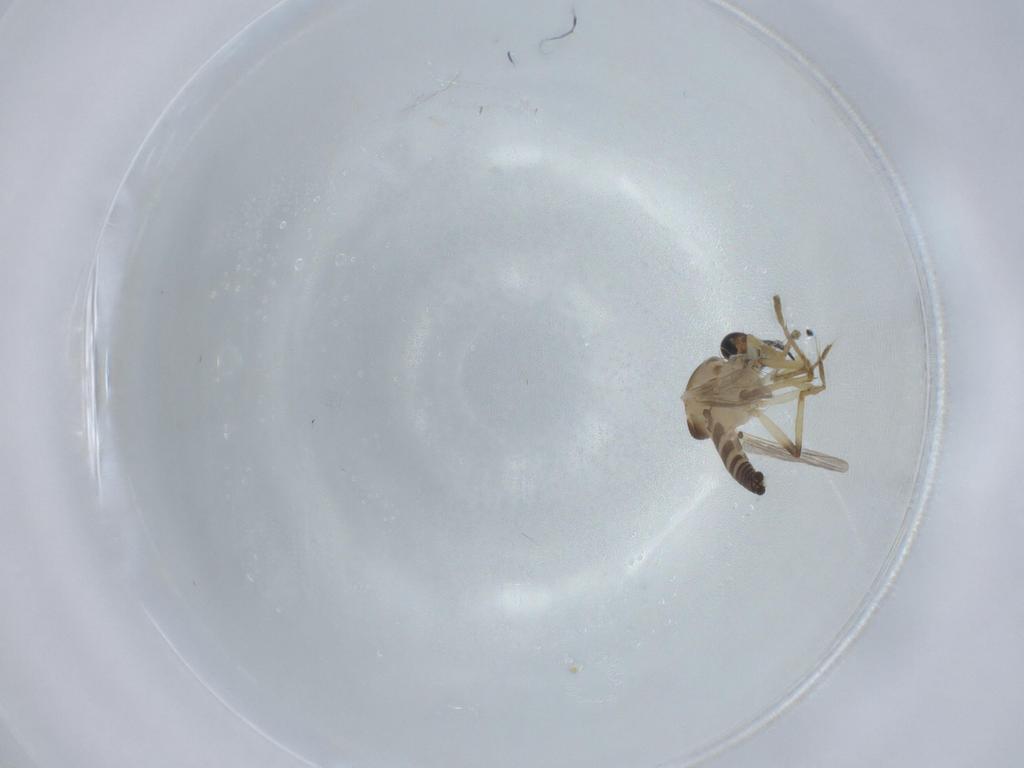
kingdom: Animalia
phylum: Arthropoda
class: Insecta
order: Diptera
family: Ceratopogonidae
